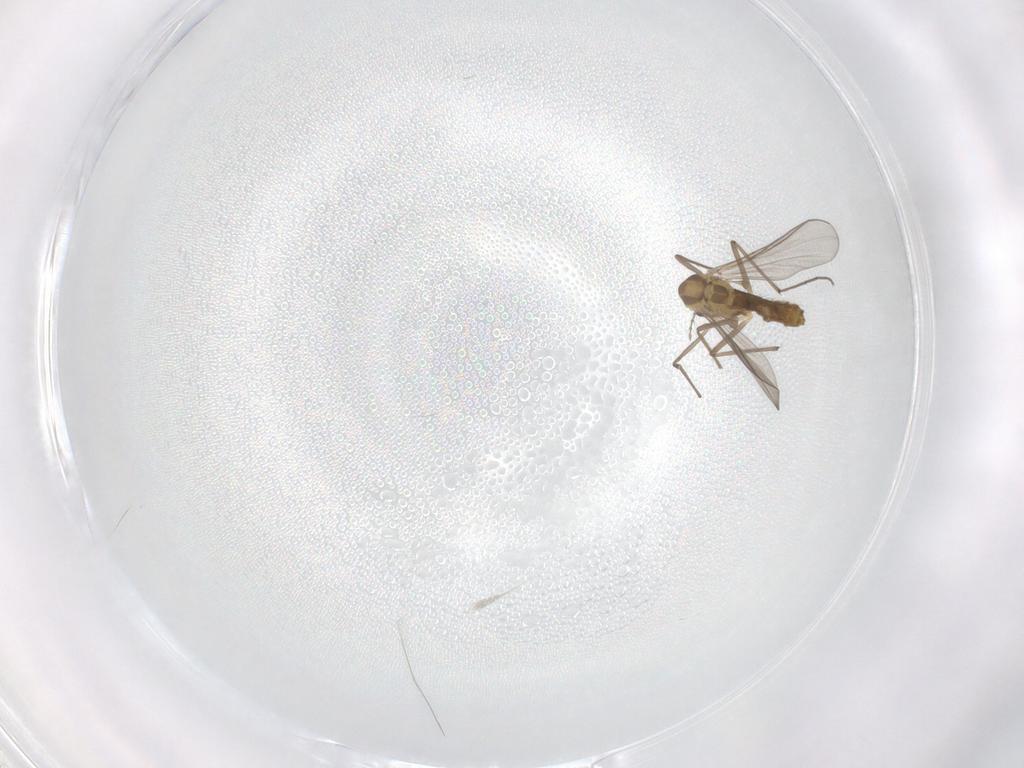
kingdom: Animalia
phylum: Arthropoda
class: Insecta
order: Diptera
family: Chironomidae
